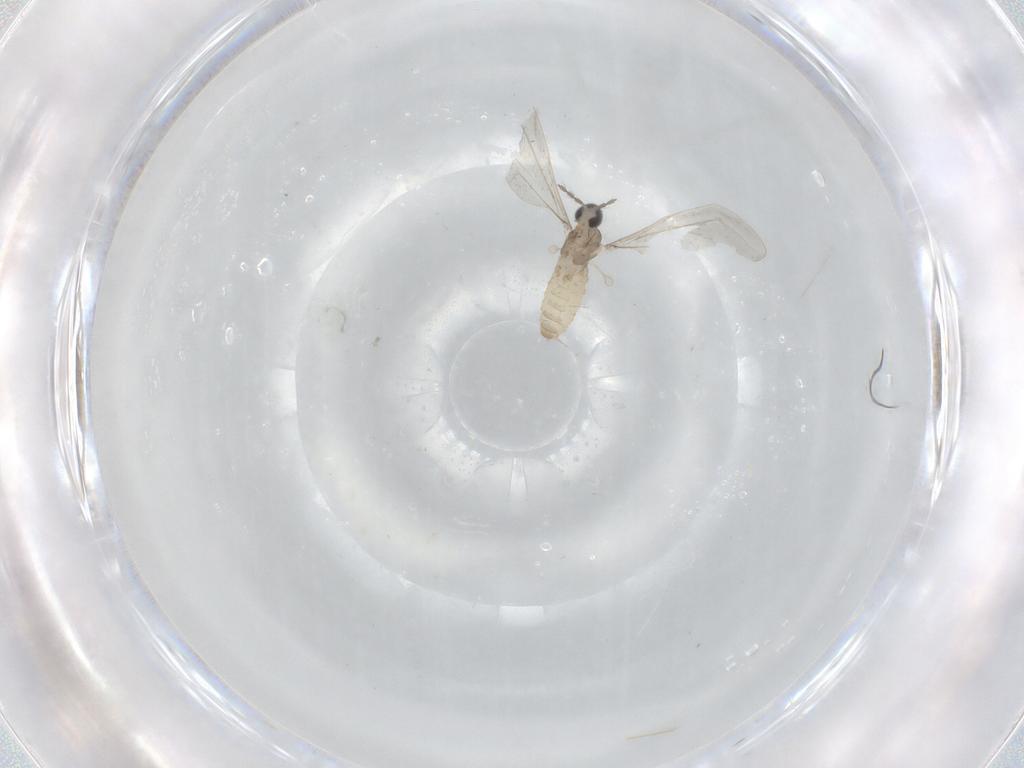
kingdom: Animalia
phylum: Arthropoda
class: Insecta
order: Diptera
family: Cecidomyiidae
